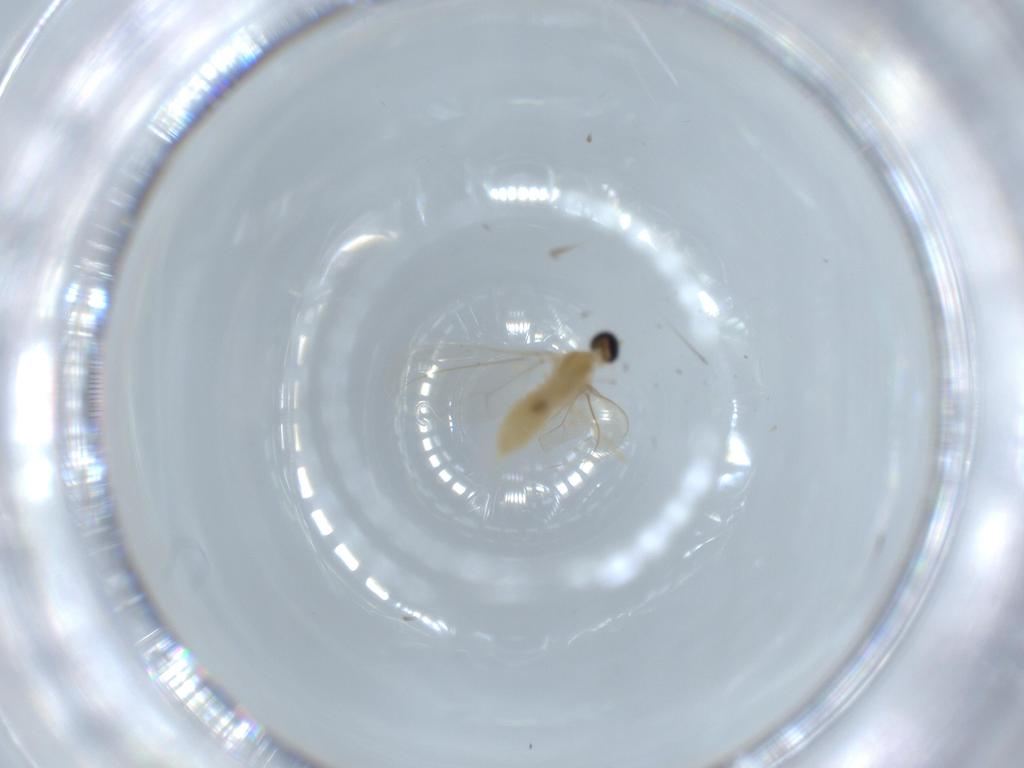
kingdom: Animalia
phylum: Arthropoda
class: Insecta
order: Diptera
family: Cecidomyiidae
